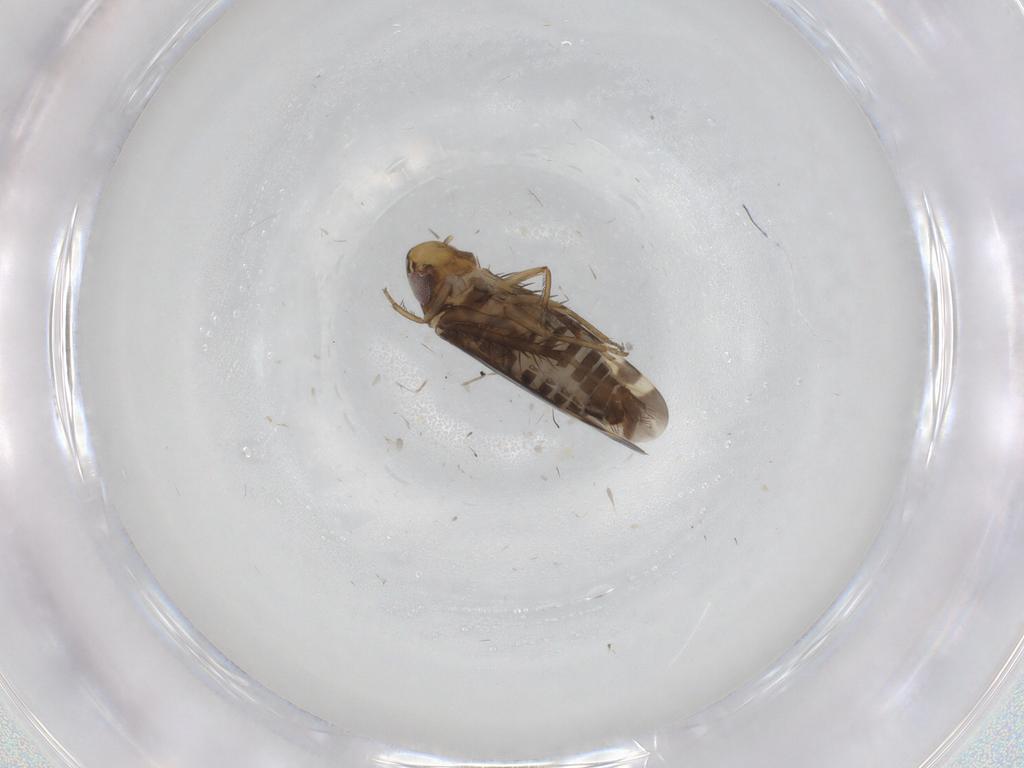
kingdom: Animalia
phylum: Arthropoda
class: Insecta
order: Hemiptera
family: Cicadellidae
